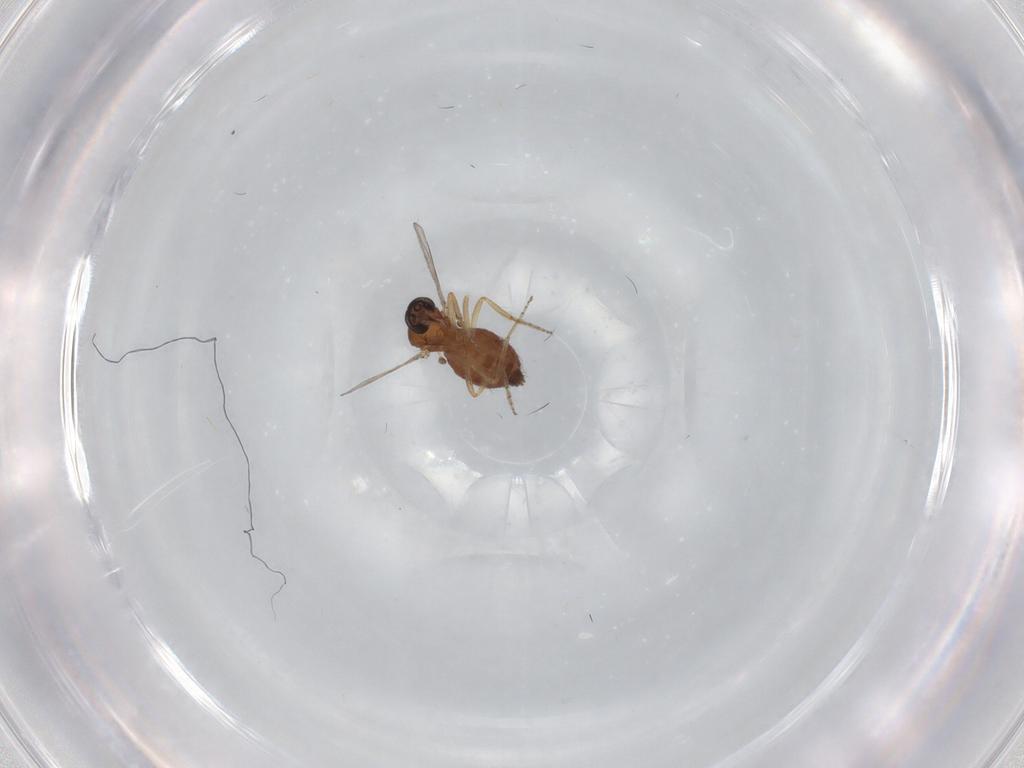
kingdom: Animalia
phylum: Arthropoda
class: Insecta
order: Diptera
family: Ceratopogonidae
